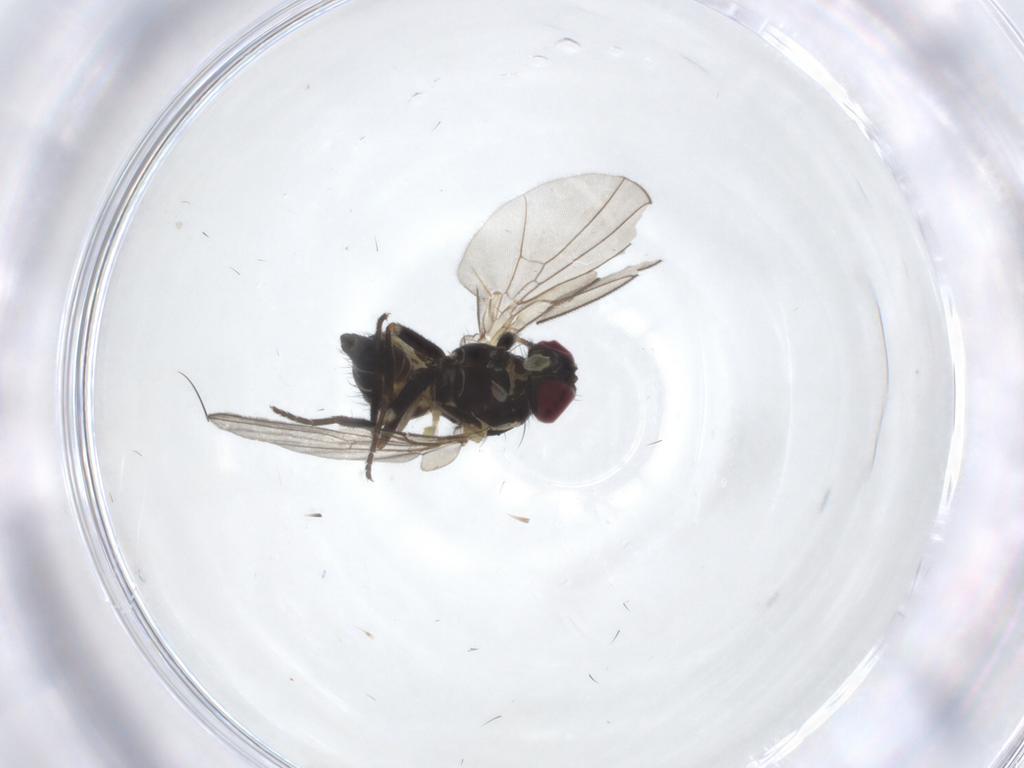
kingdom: Animalia
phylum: Arthropoda
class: Insecta
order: Diptera
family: Agromyzidae
